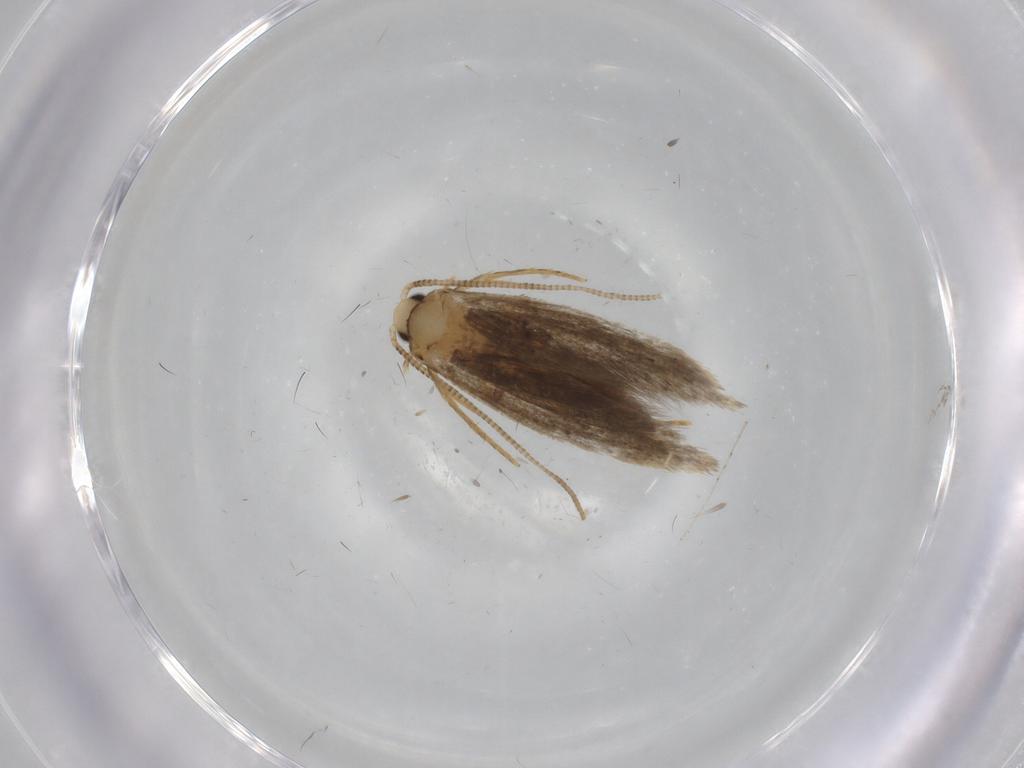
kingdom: Animalia
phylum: Arthropoda
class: Insecta
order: Lepidoptera
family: Tineidae
